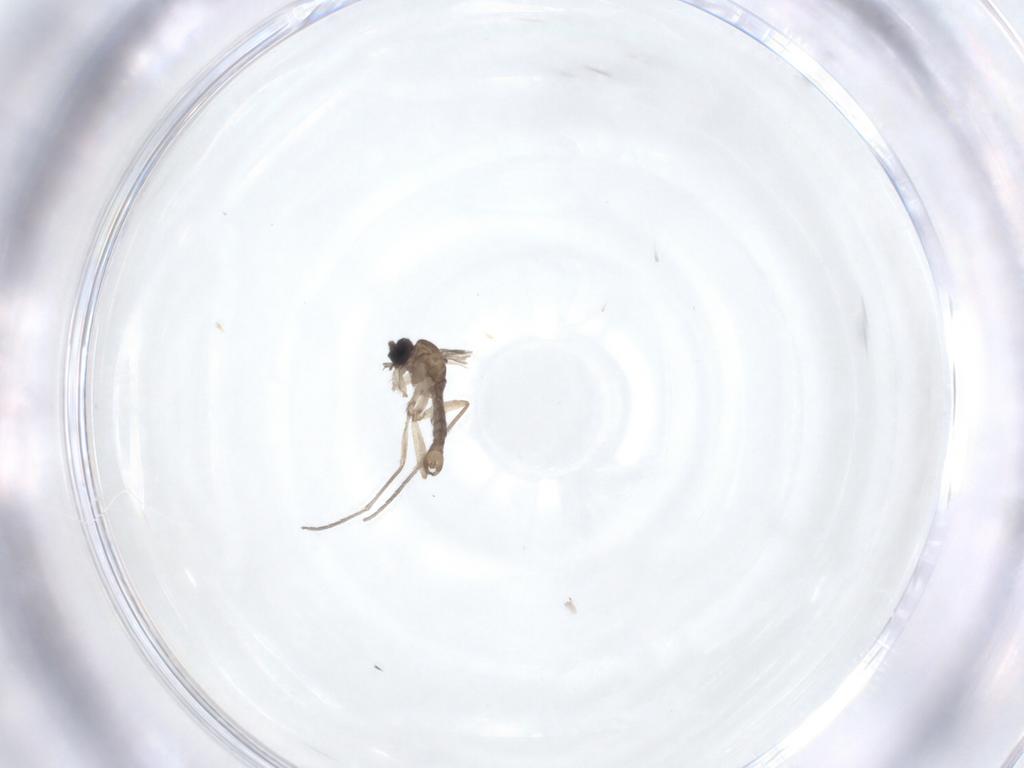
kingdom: Animalia
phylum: Arthropoda
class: Insecta
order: Diptera
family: Sciaridae
